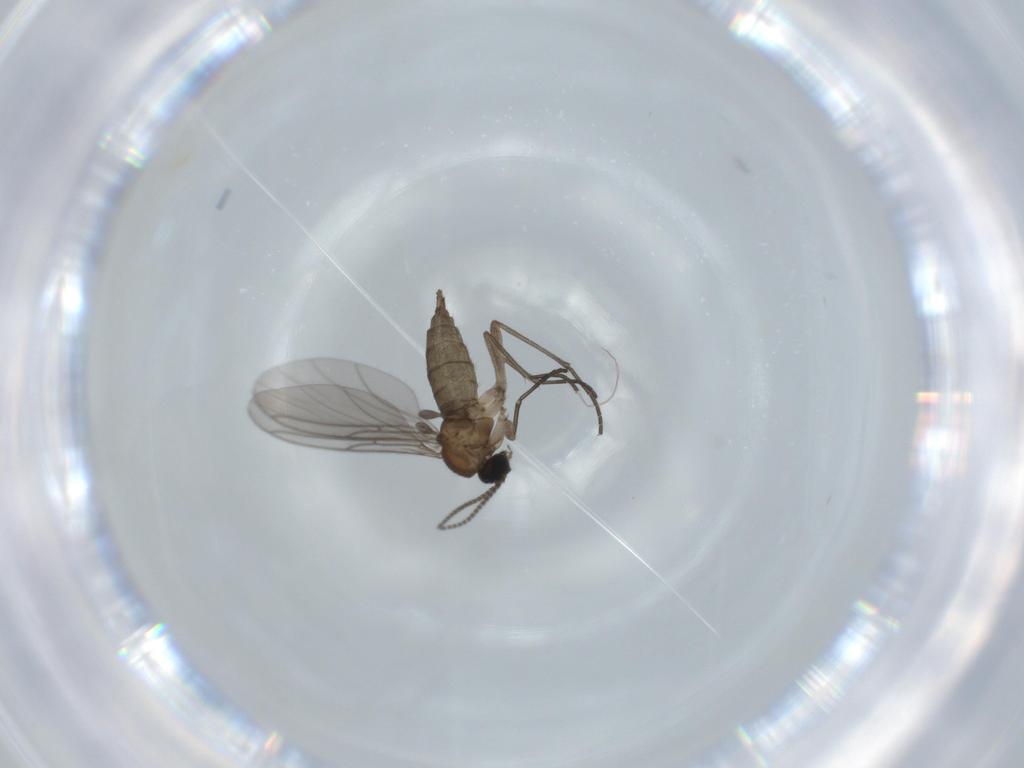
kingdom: Animalia
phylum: Arthropoda
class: Insecta
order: Diptera
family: Sciaridae
